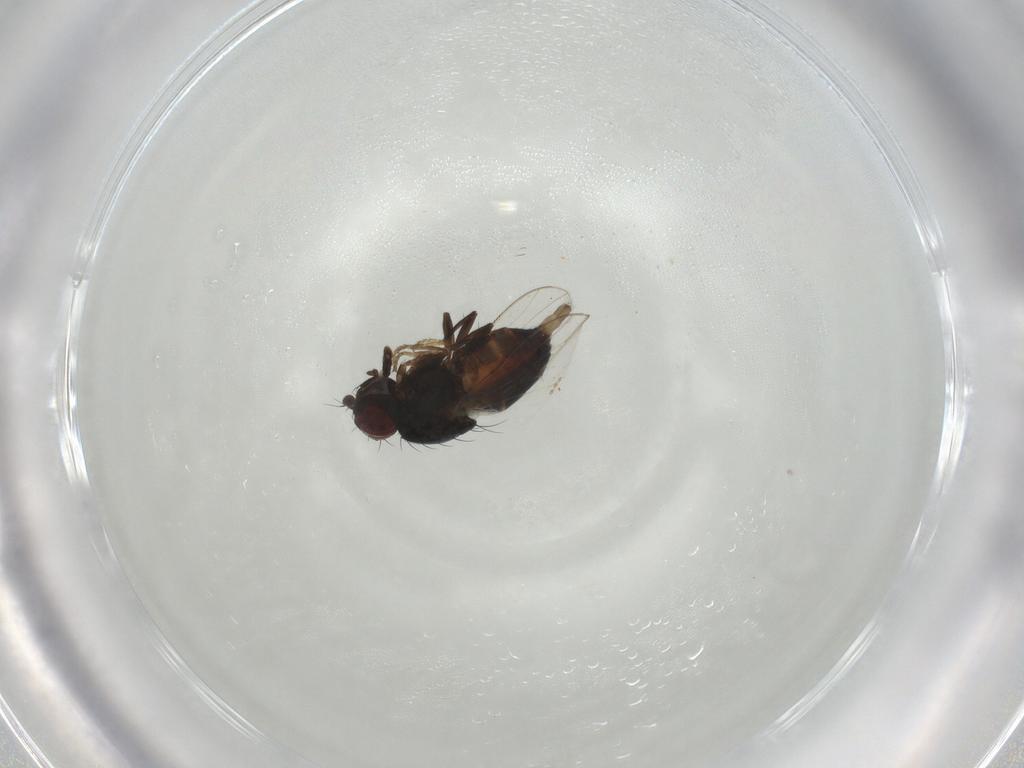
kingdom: Animalia
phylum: Arthropoda
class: Insecta
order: Diptera
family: Carnidae
